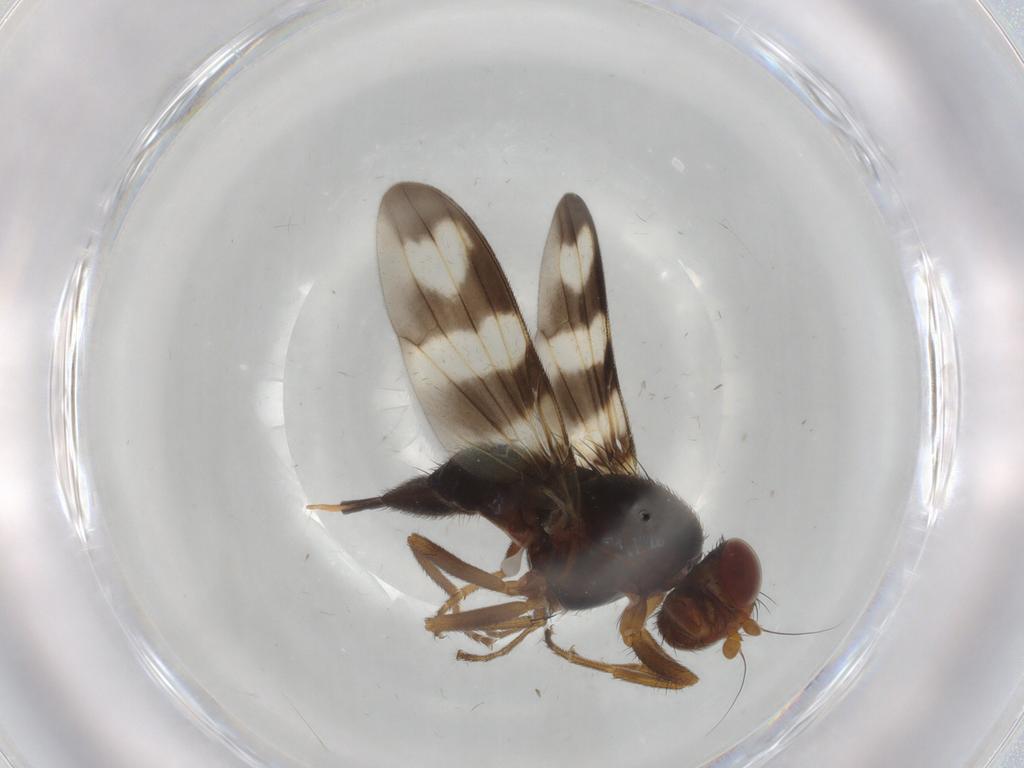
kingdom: Animalia
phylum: Arthropoda
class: Insecta
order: Diptera
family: Ulidiidae
